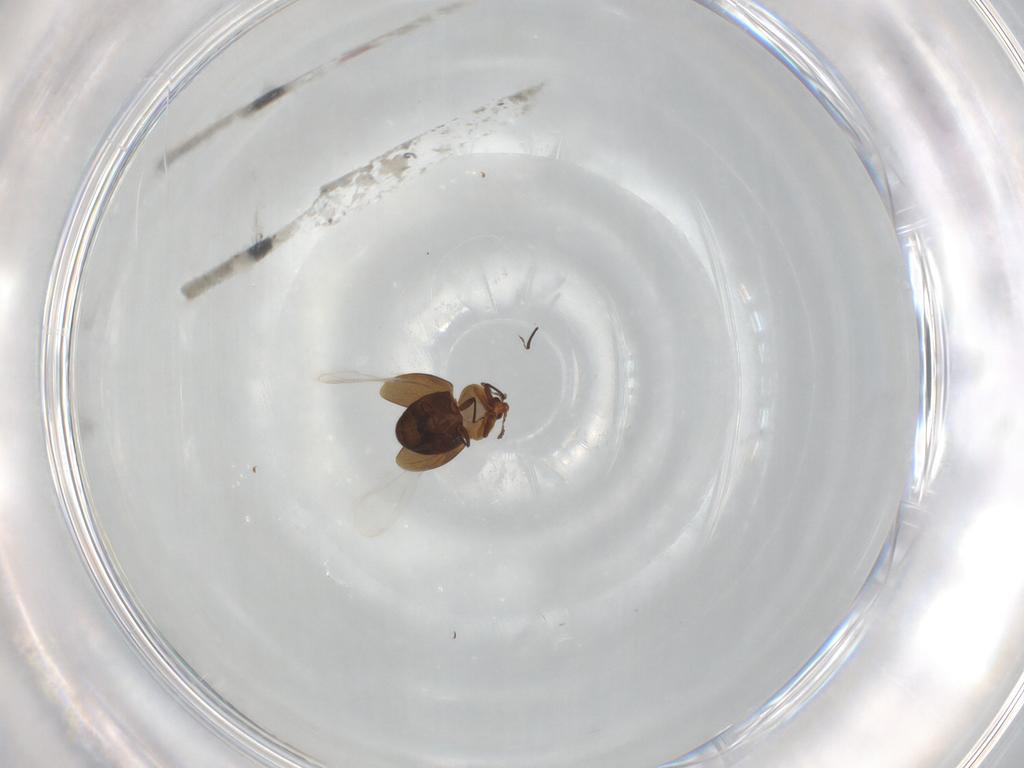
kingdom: Animalia
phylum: Arthropoda
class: Insecta
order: Coleoptera
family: Corylophidae
